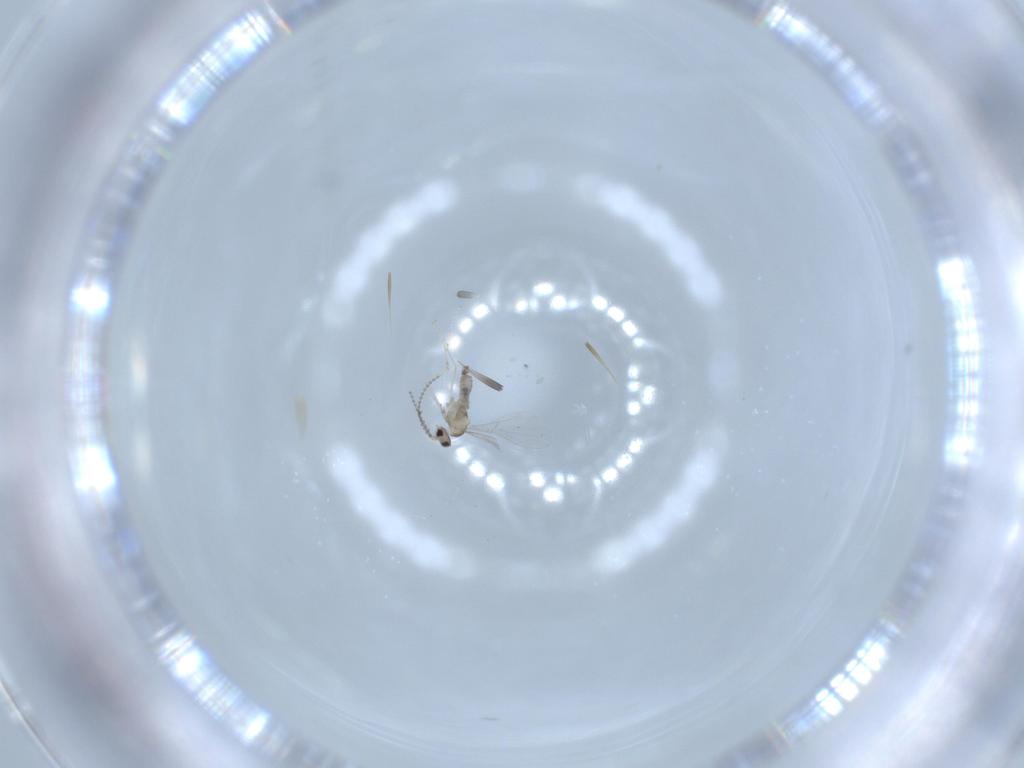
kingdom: Animalia
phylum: Arthropoda
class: Insecta
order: Diptera
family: Cecidomyiidae
